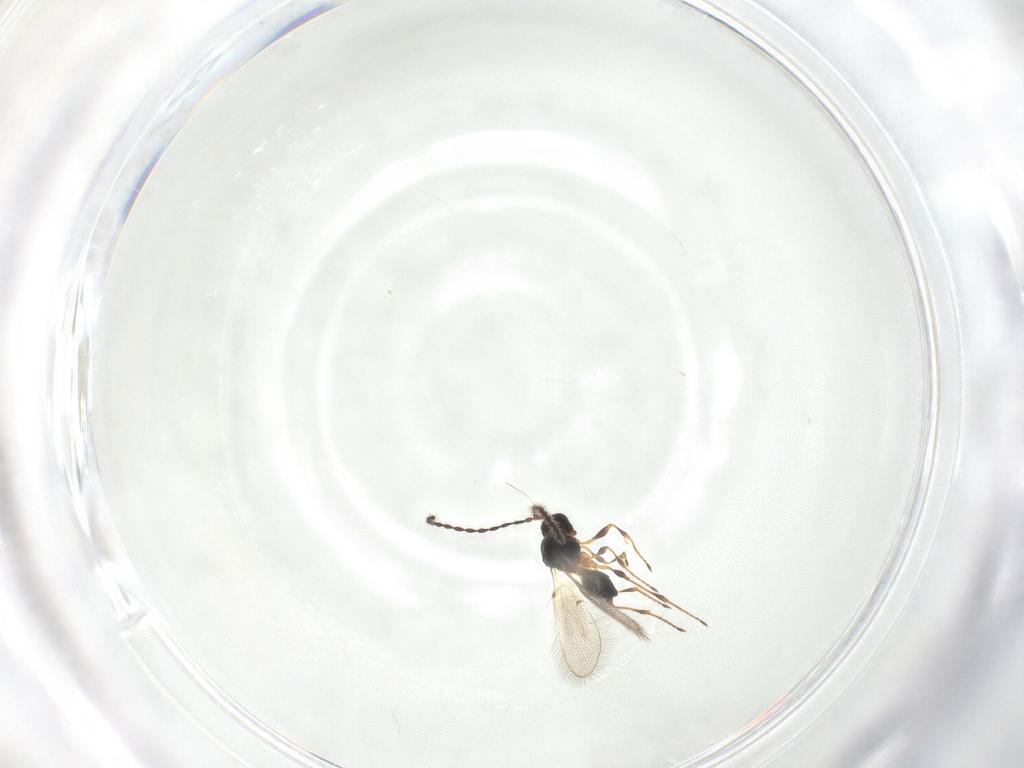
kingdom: Animalia
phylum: Arthropoda
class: Insecta
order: Hymenoptera
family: Diapriidae
